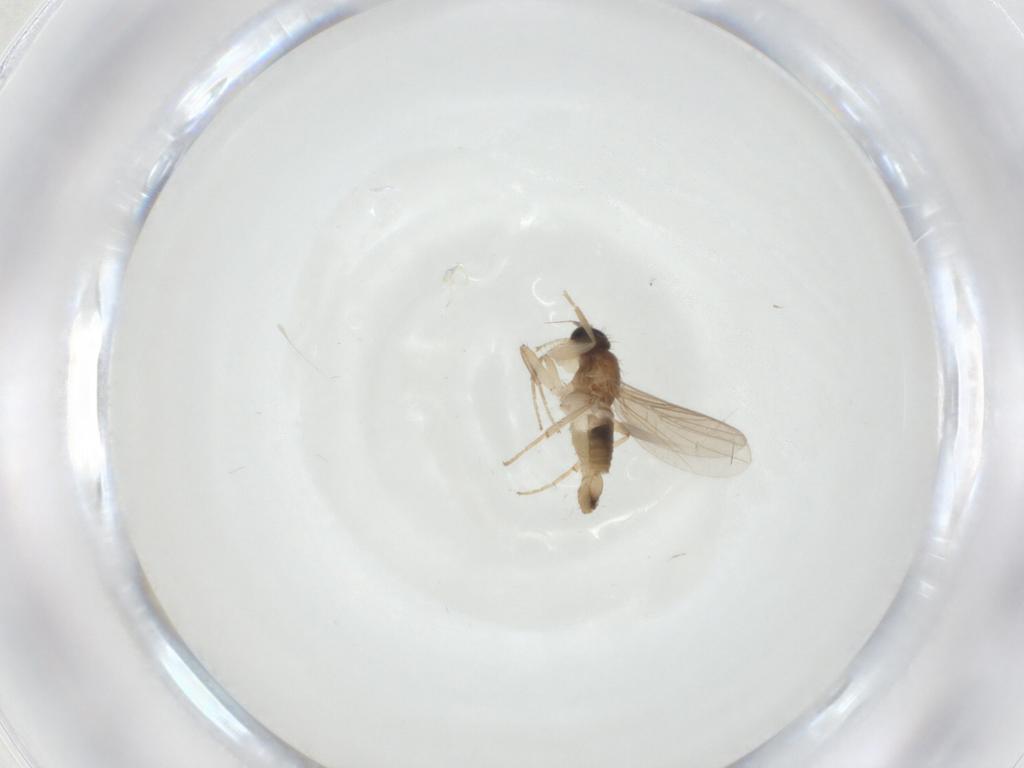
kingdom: Animalia
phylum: Arthropoda
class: Insecta
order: Diptera
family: Hybotidae
